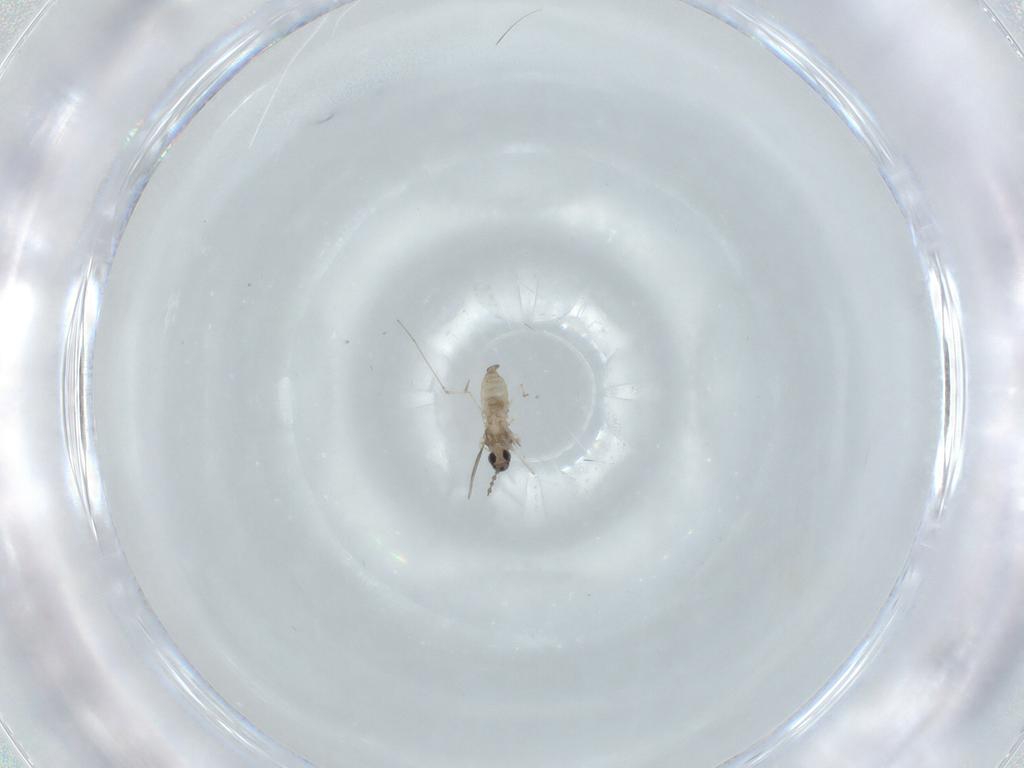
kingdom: Animalia
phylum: Arthropoda
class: Insecta
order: Diptera
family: Cecidomyiidae
